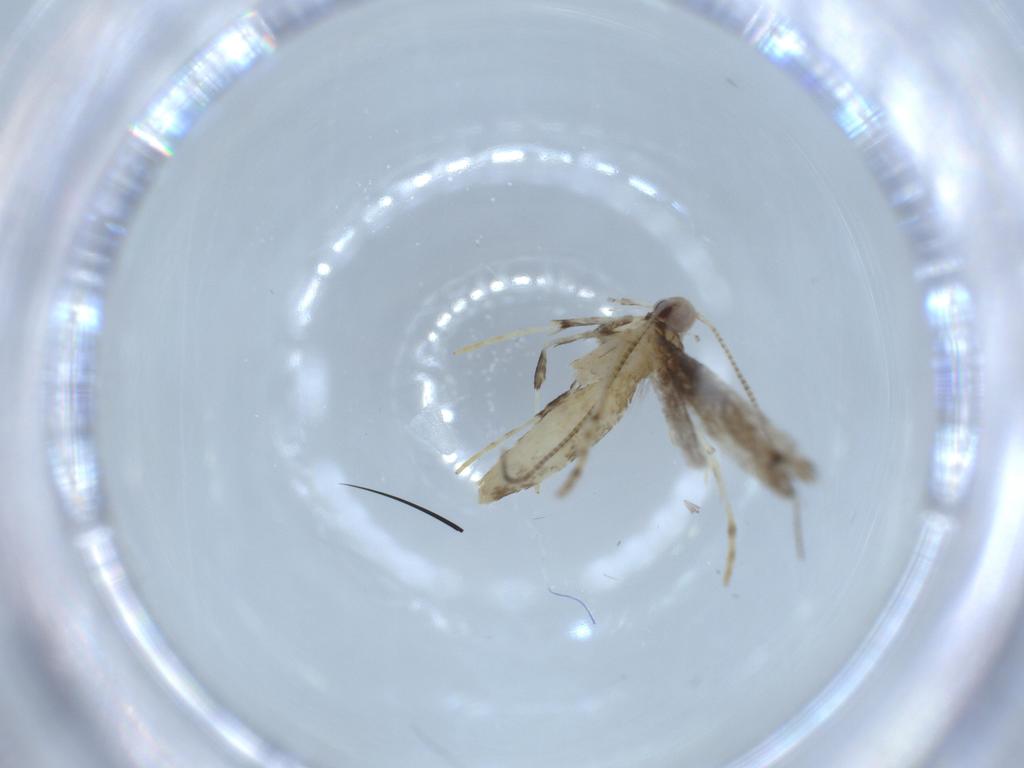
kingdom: Animalia
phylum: Arthropoda
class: Insecta
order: Lepidoptera
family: Gracillariidae
